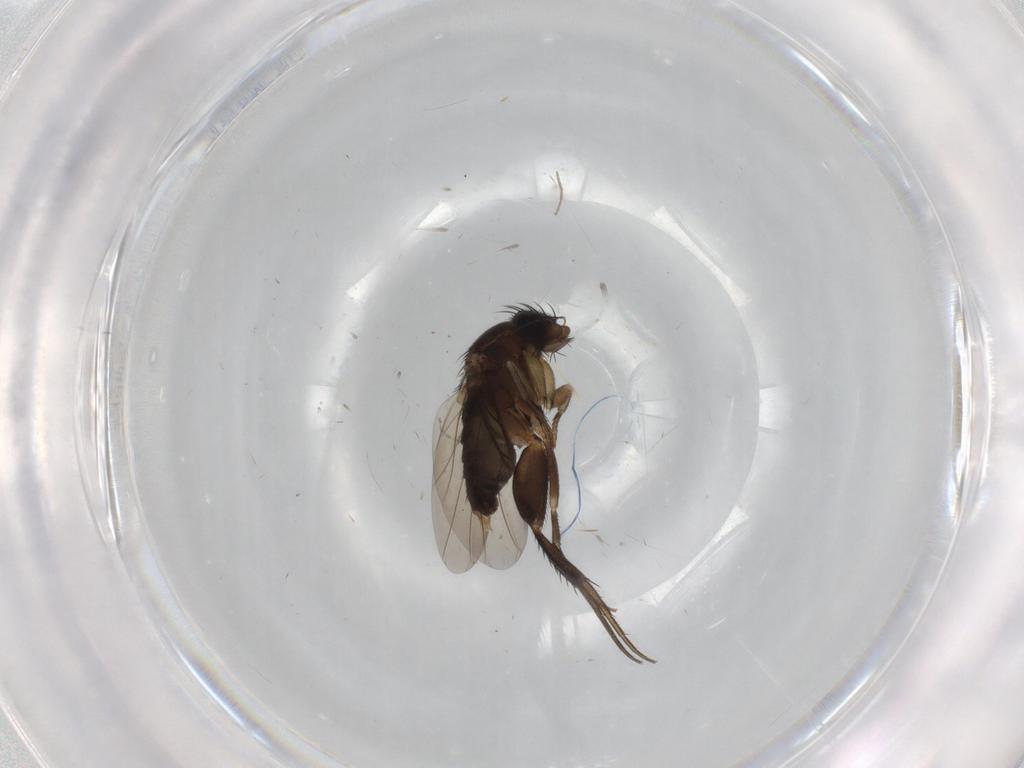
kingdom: Animalia
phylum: Arthropoda
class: Insecta
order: Diptera
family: Phoridae
